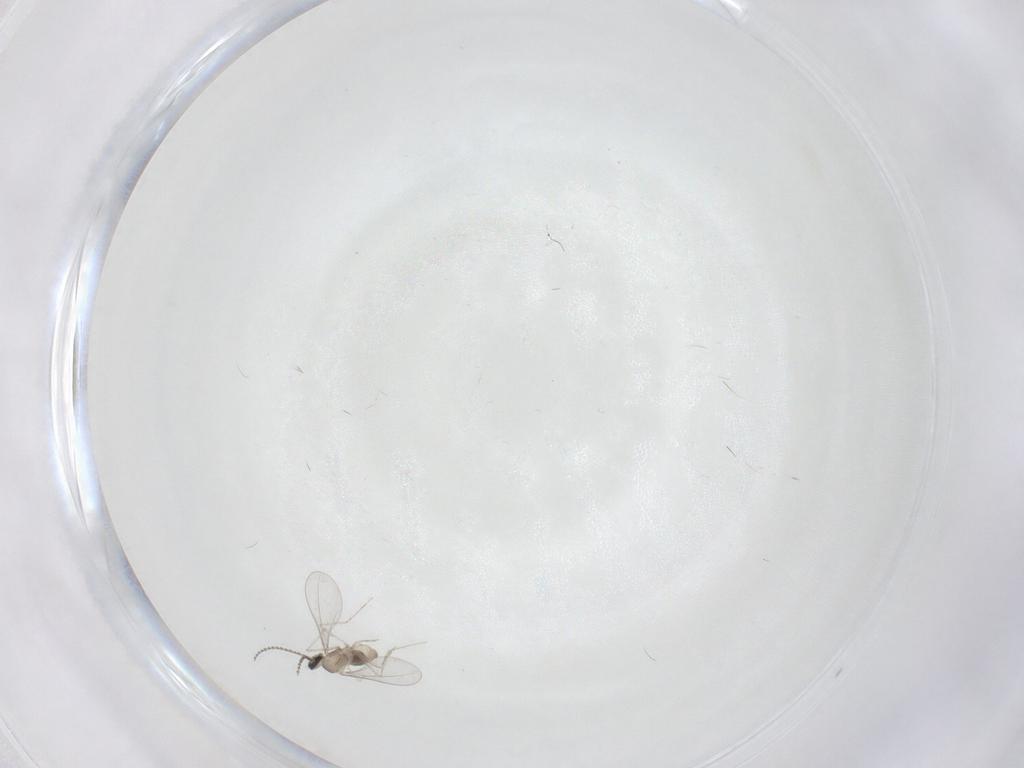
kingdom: Animalia
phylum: Arthropoda
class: Insecta
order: Diptera
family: Cecidomyiidae
